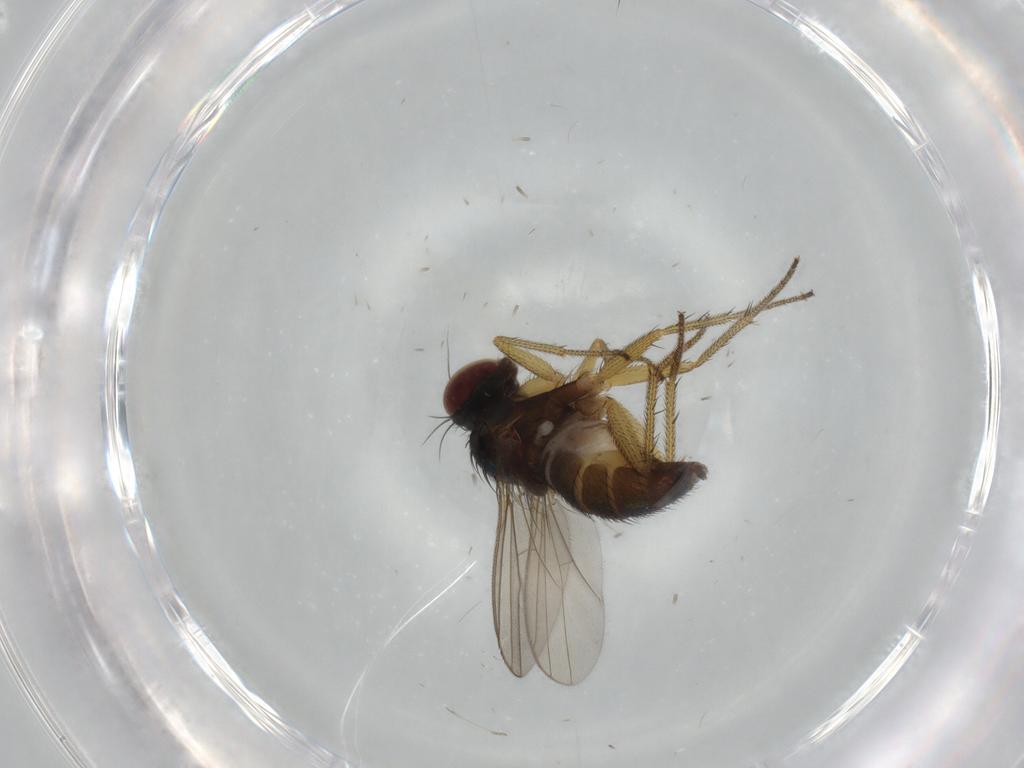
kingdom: Animalia
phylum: Arthropoda
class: Insecta
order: Diptera
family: Dolichopodidae
